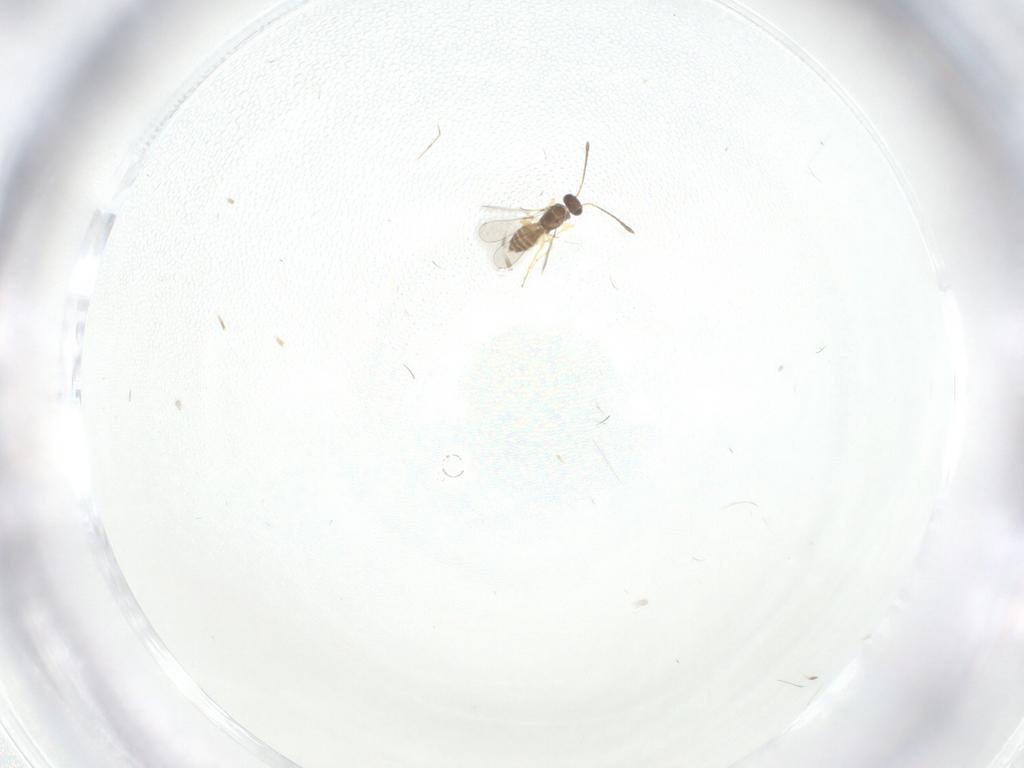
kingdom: Animalia
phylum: Arthropoda
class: Insecta
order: Hymenoptera
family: Mymaridae
